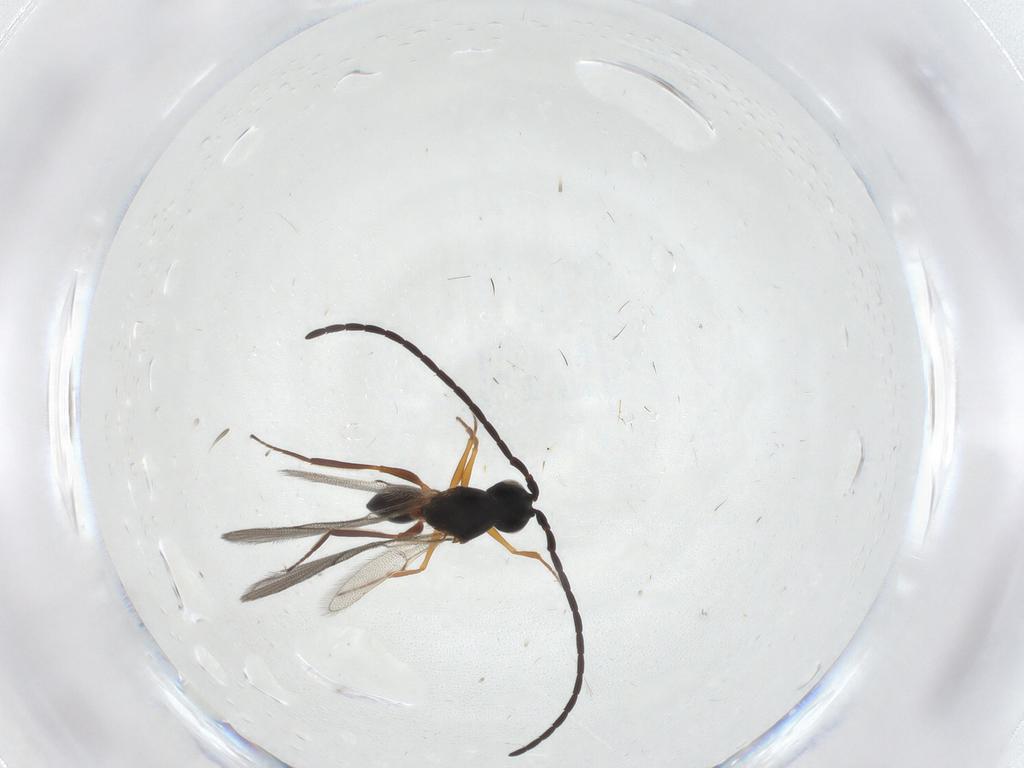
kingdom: Animalia
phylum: Arthropoda
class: Insecta
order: Hymenoptera
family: Figitidae
